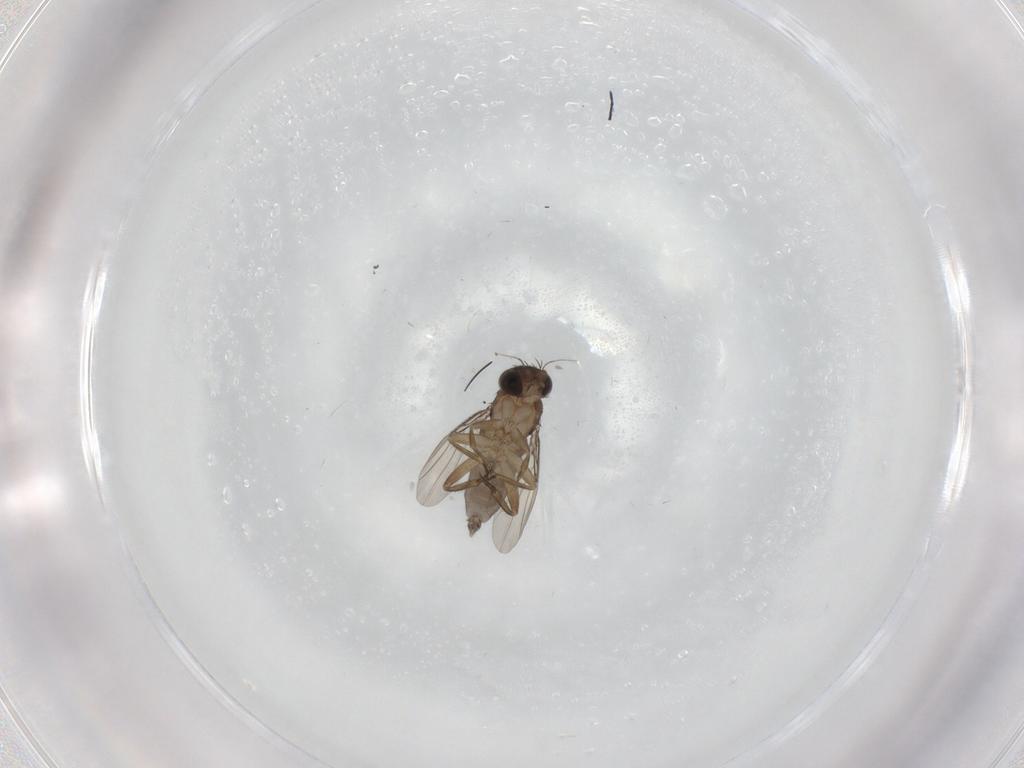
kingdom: Animalia
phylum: Arthropoda
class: Insecta
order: Diptera
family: Phoridae
